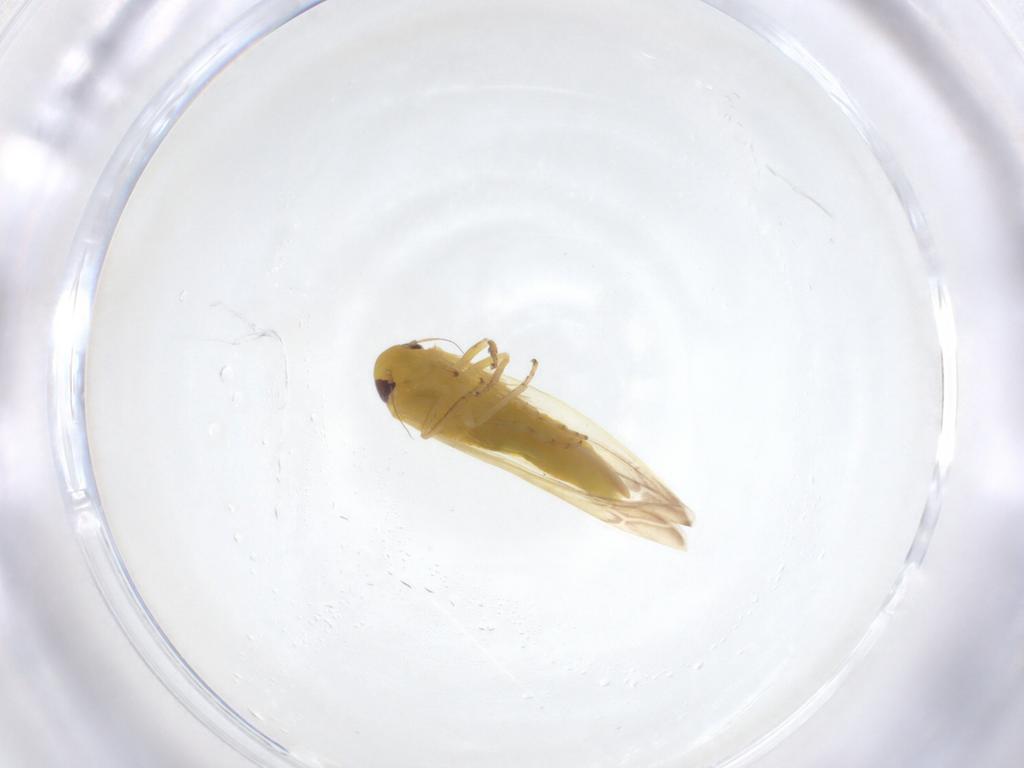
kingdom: Animalia
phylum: Arthropoda
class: Insecta
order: Hemiptera
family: Cicadellidae
